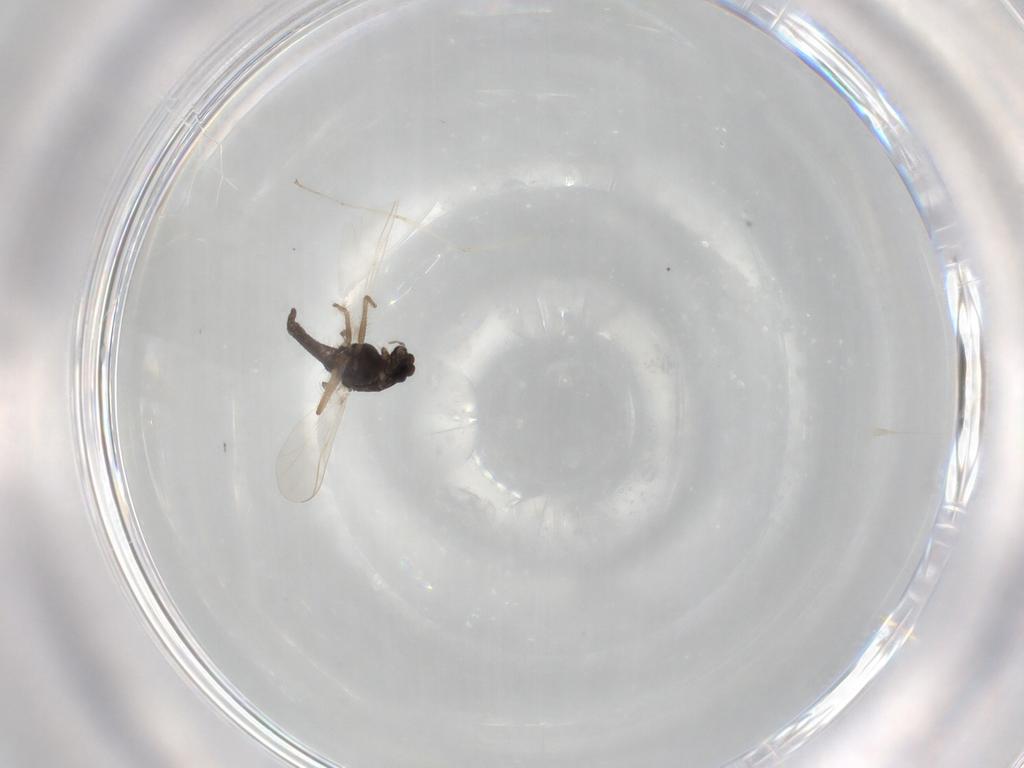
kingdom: Animalia
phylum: Arthropoda
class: Insecta
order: Diptera
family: Chironomidae
